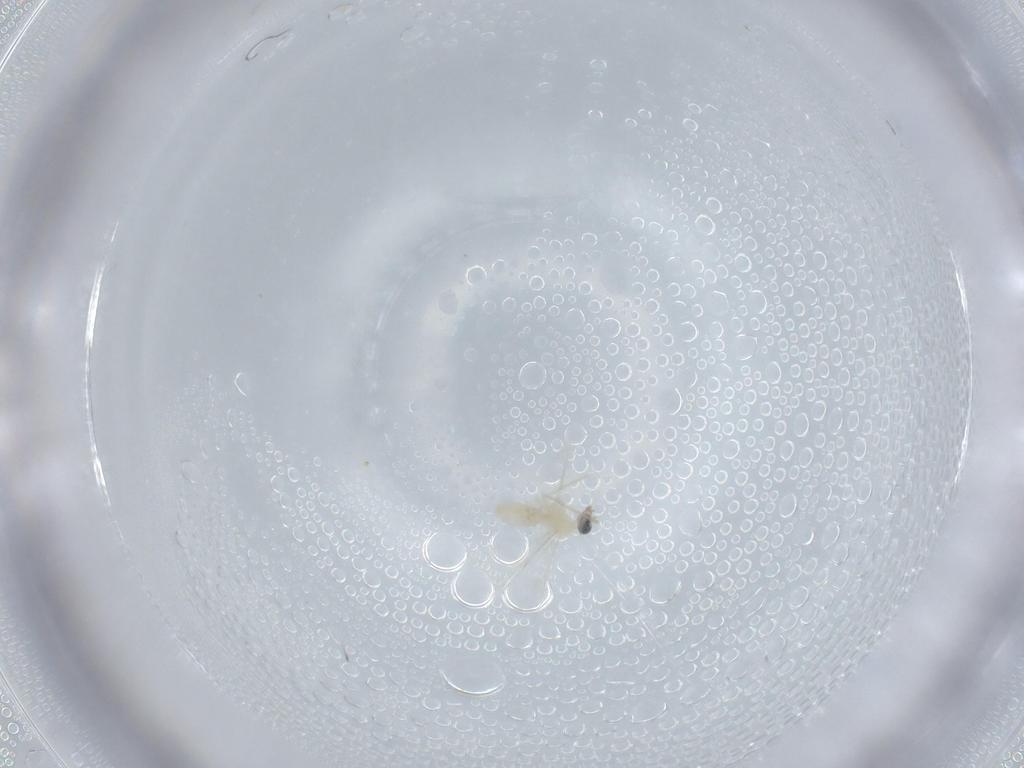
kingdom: Animalia
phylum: Arthropoda
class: Insecta
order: Diptera
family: Cecidomyiidae
